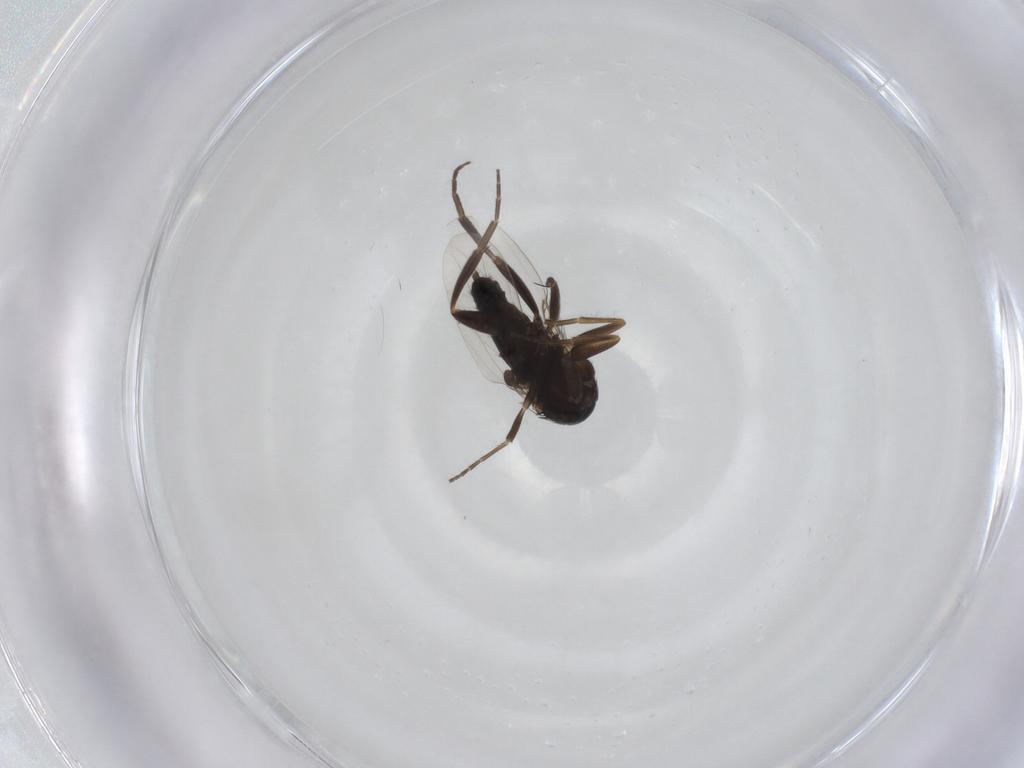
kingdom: Animalia
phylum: Arthropoda
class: Insecta
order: Diptera
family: Phoridae
